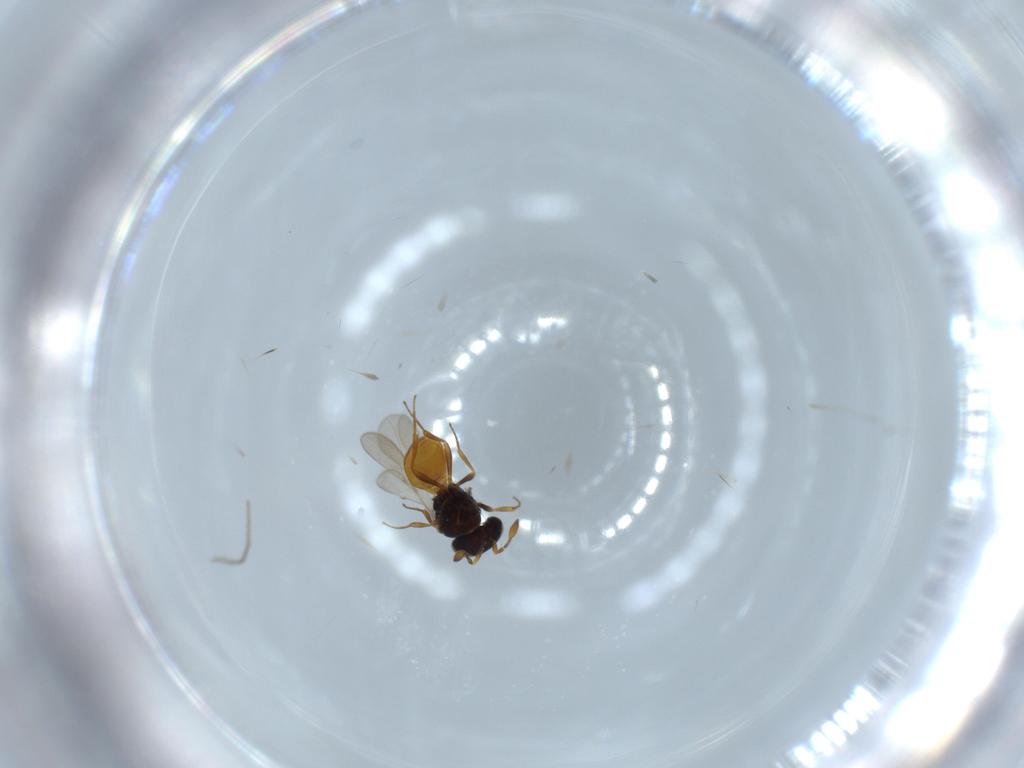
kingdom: Animalia
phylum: Arthropoda
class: Insecta
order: Hymenoptera
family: Scelionidae
